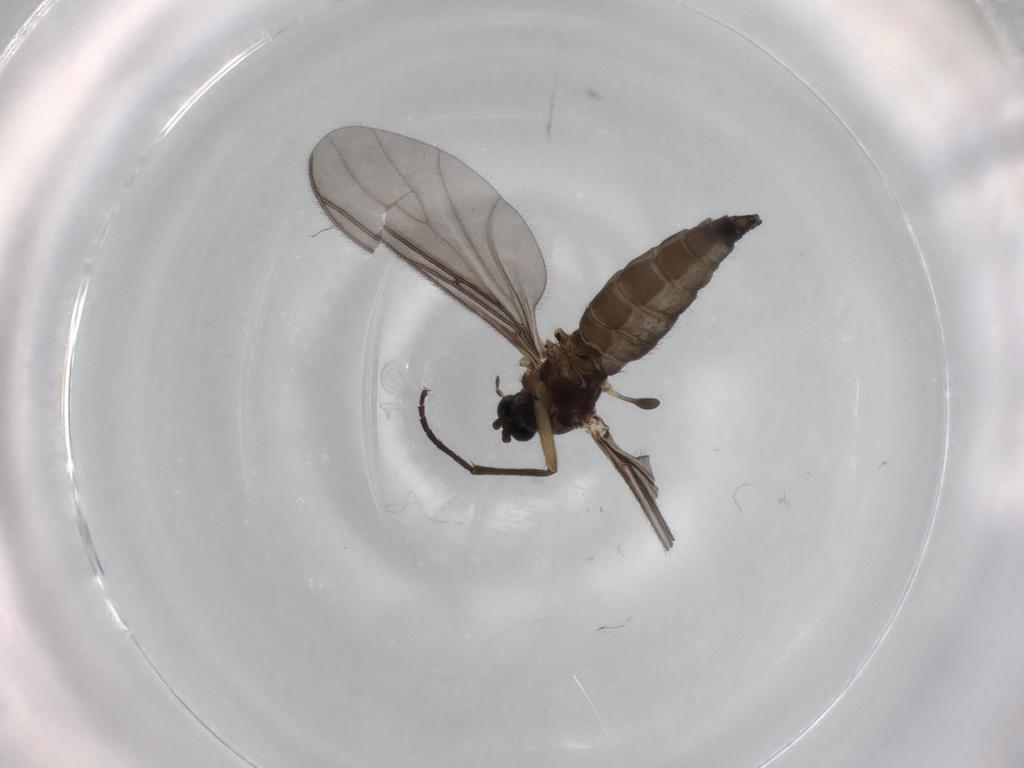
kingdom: Animalia
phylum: Arthropoda
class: Insecta
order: Diptera
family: Sciaridae
